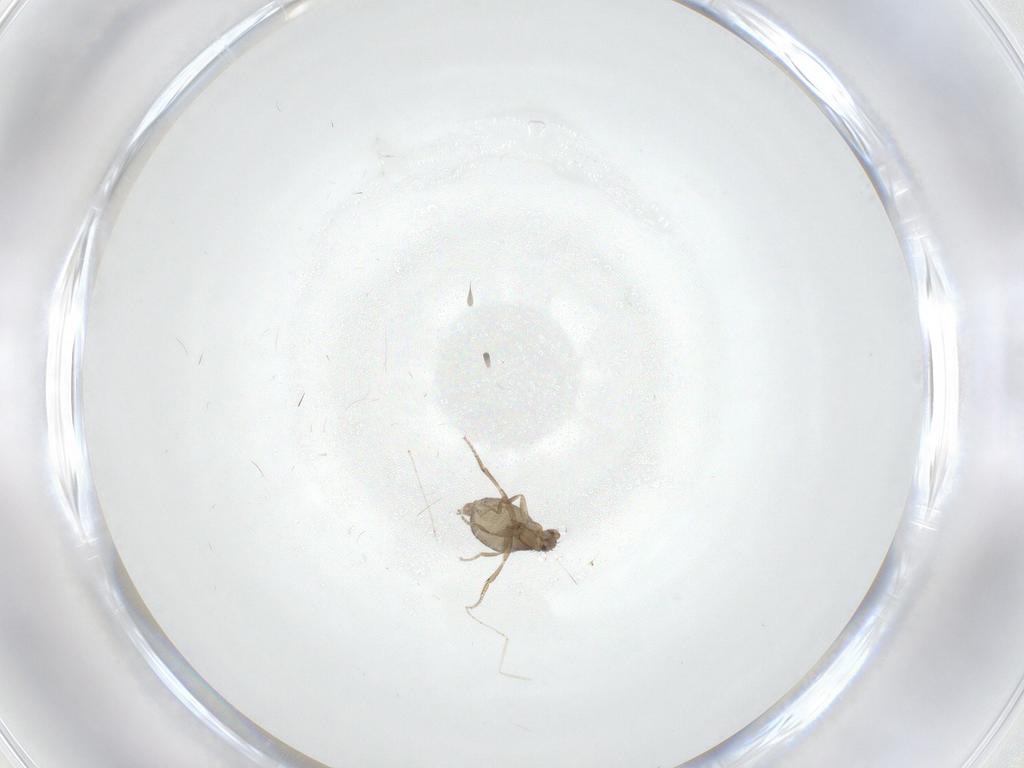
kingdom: Animalia
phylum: Arthropoda
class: Insecta
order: Diptera
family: Cecidomyiidae
